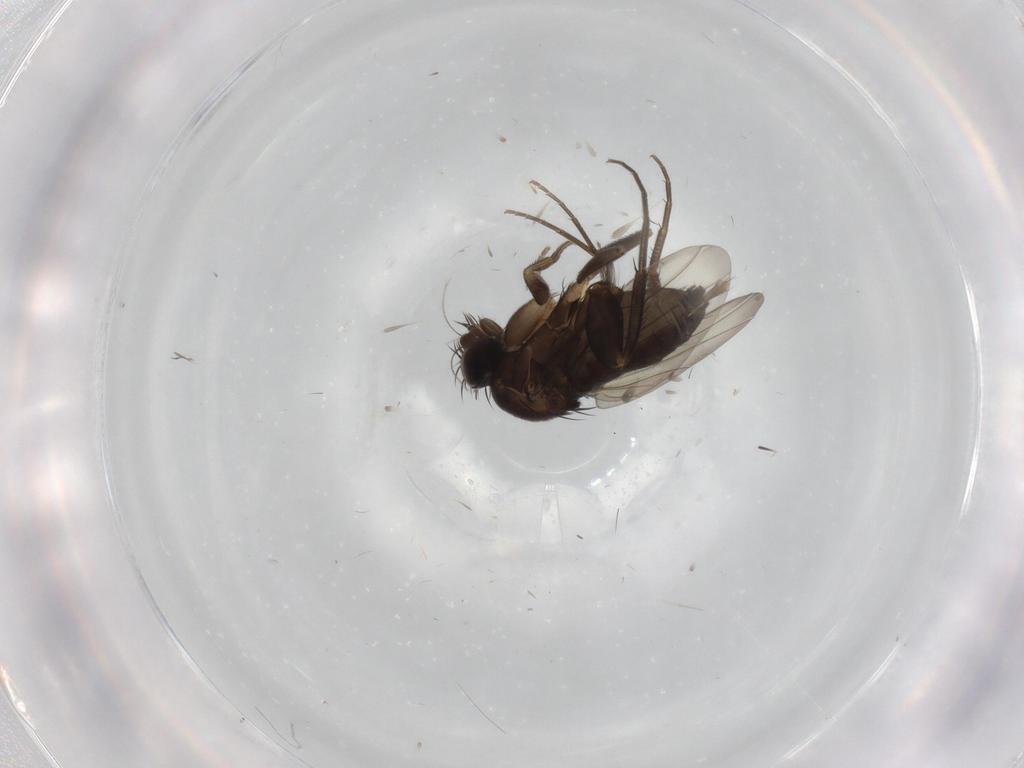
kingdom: Animalia
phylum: Arthropoda
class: Insecta
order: Diptera
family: Phoridae
